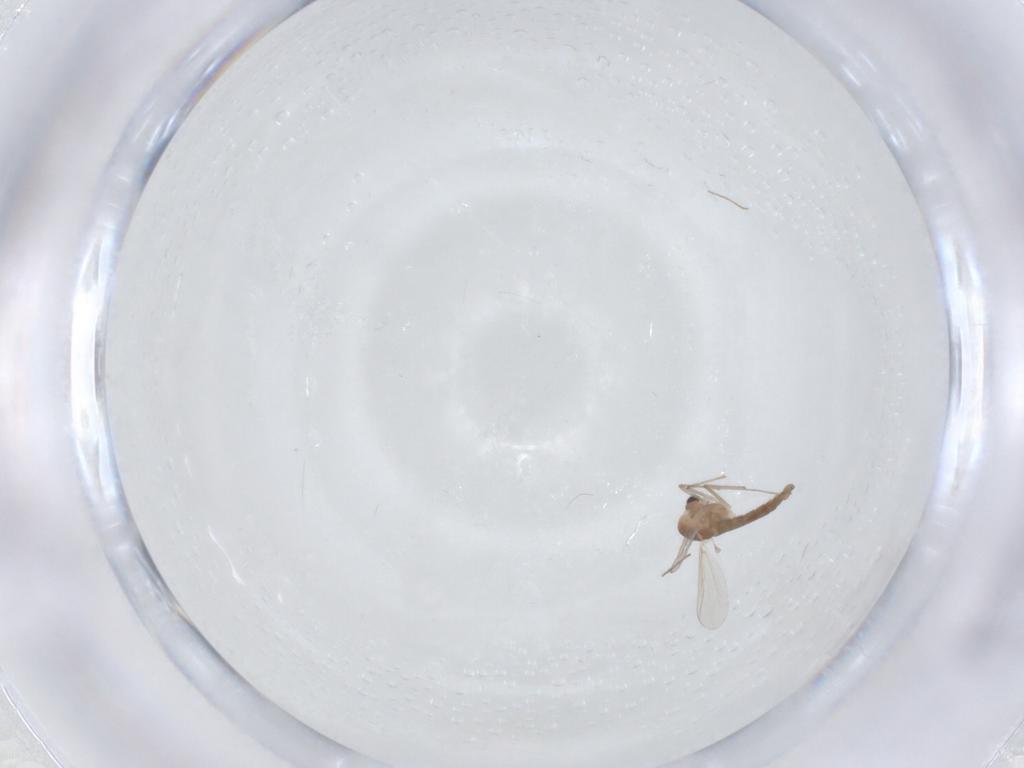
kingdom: Animalia
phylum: Arthropoda
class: Insecta
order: Diptera
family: Chironomidae
